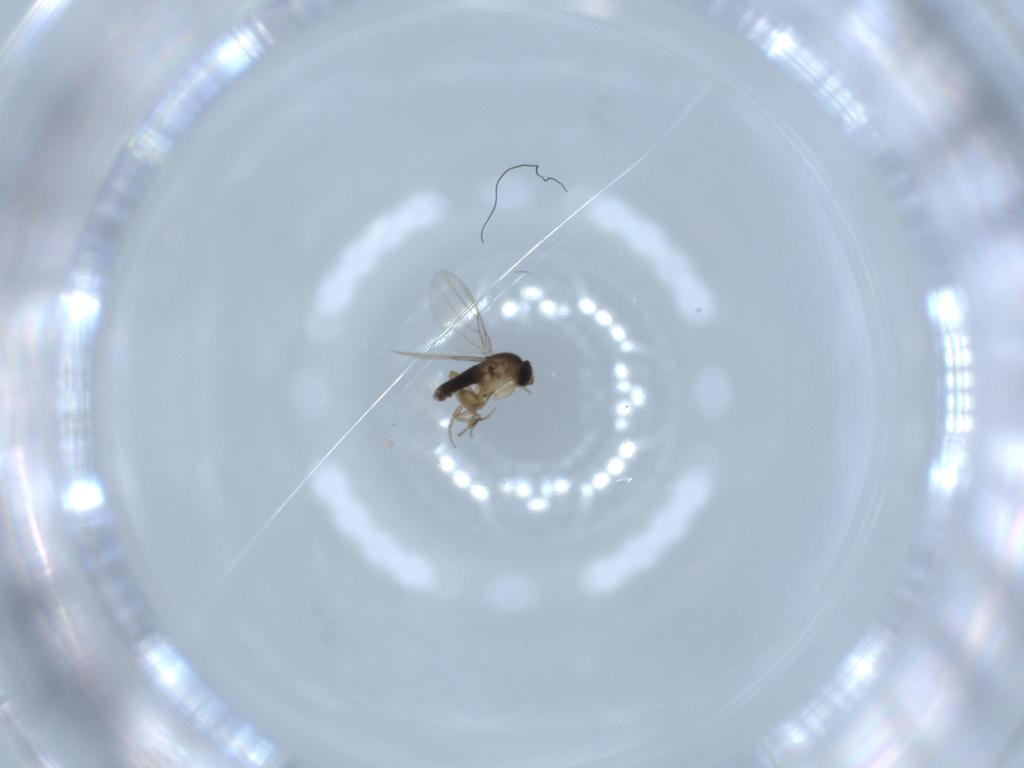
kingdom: Animalia
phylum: Arthropoda
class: Insecta
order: Diptera
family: Phoridae
